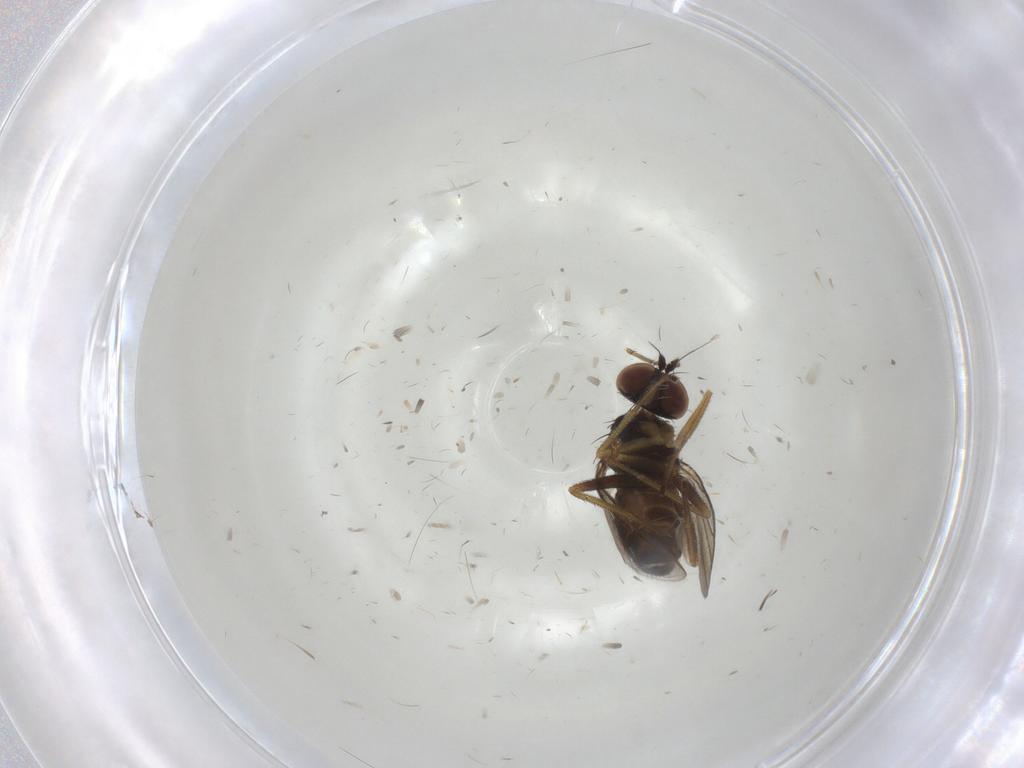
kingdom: Animalia
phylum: Arthropoda
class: Insecta
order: Diptera
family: Dolichopodidae
